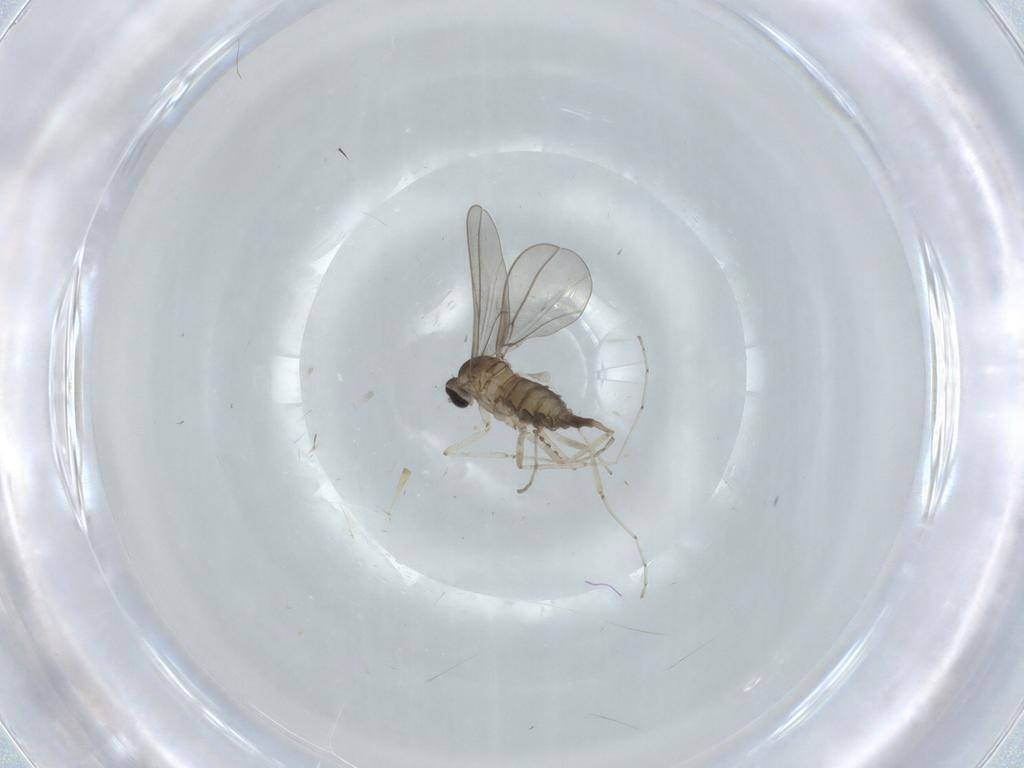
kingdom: Animalia
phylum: Arthropoda
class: Insecta
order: Diptera
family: Cecidomyiidae
